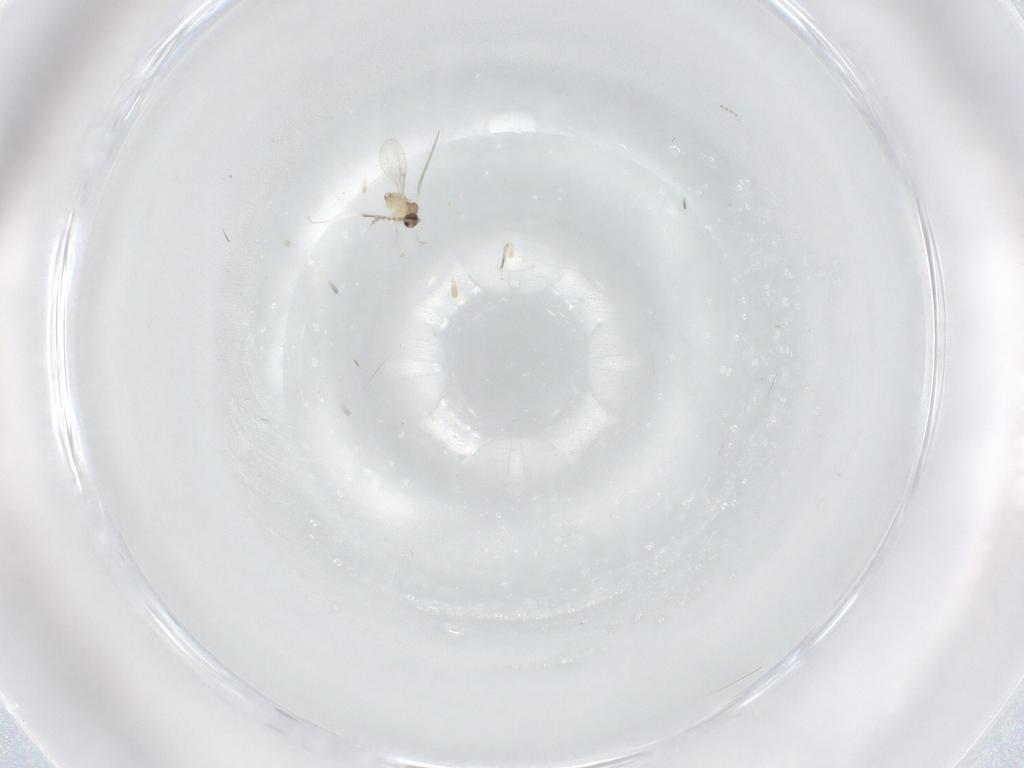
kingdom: Animalia
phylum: Arthropoda
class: Insecta
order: Diptera
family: Cecidomyiidae
